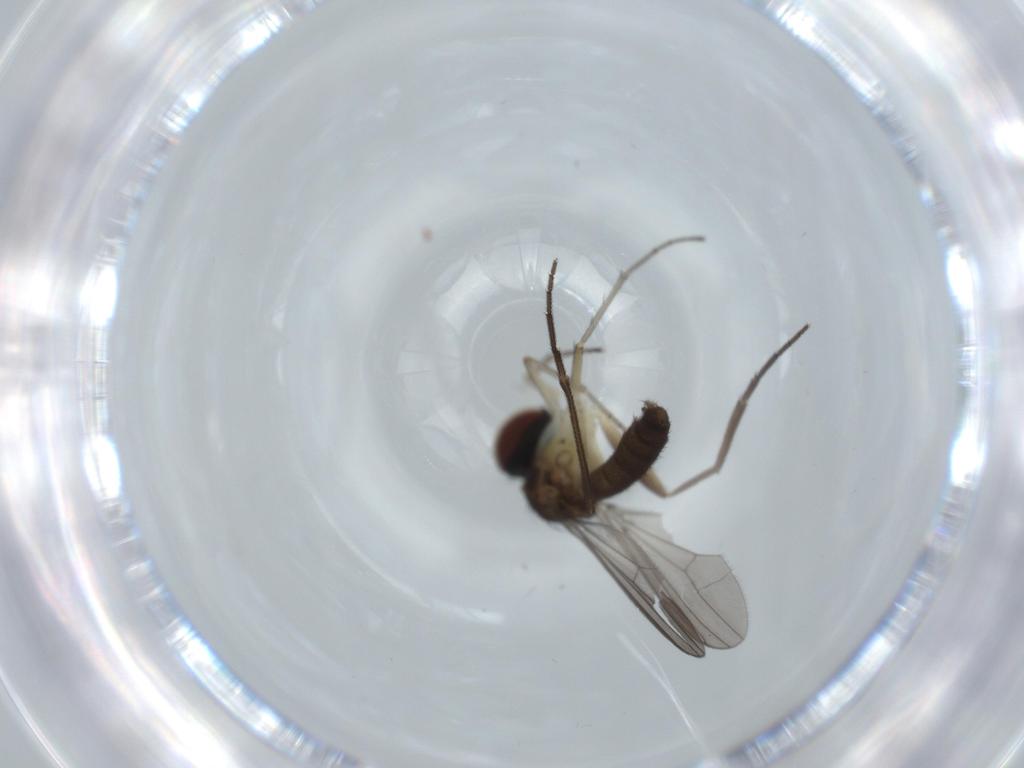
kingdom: Animalia
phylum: Arthropoda
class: Insecta
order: Diptera
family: Dolichopodidae
